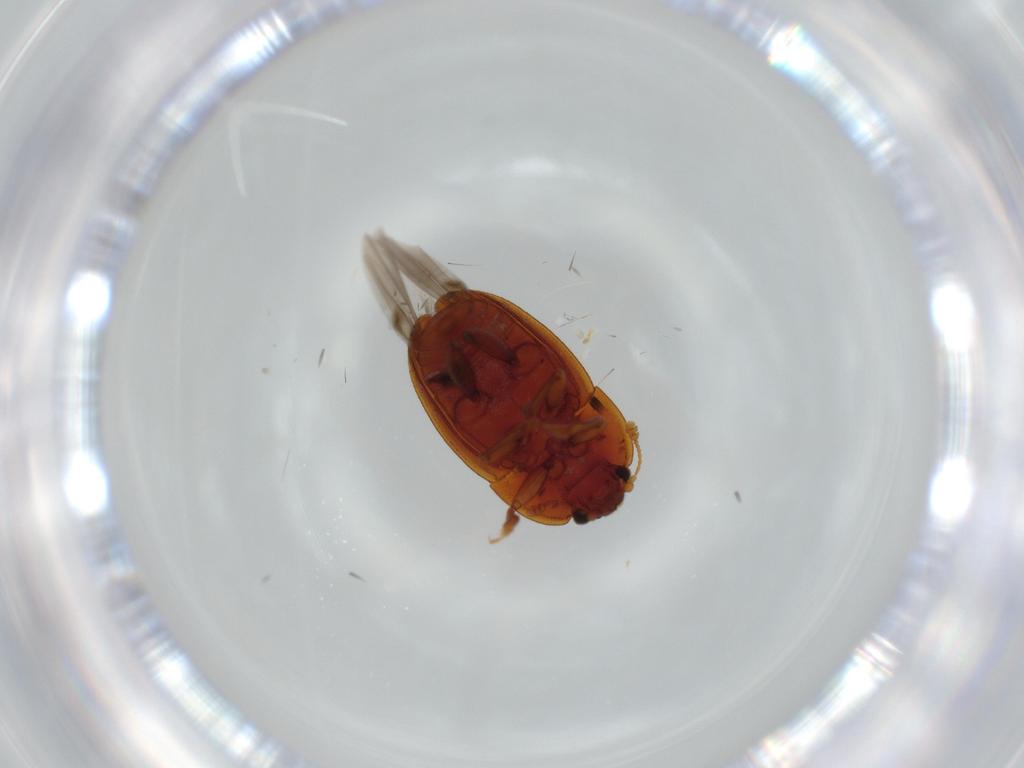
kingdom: Animalia
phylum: Arthropoda
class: Insecta
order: Coleoptera
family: Nitidulidae
